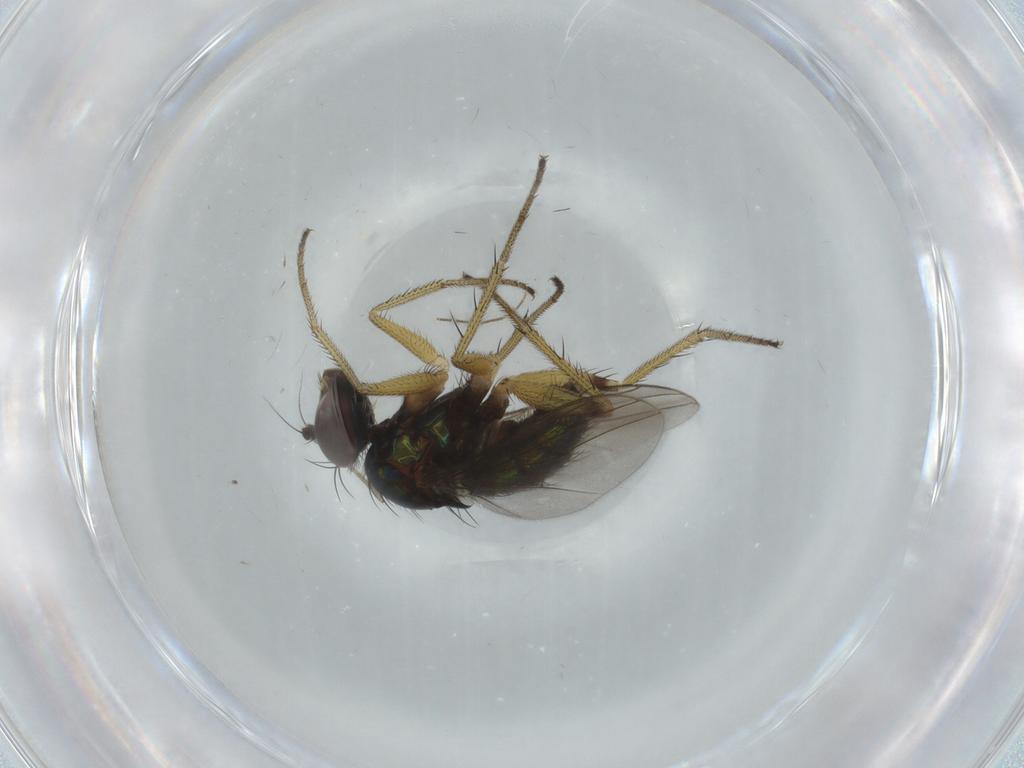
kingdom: Animalia
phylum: Arthropoda
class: Insecta
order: Diptera
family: Dolichopodidae
